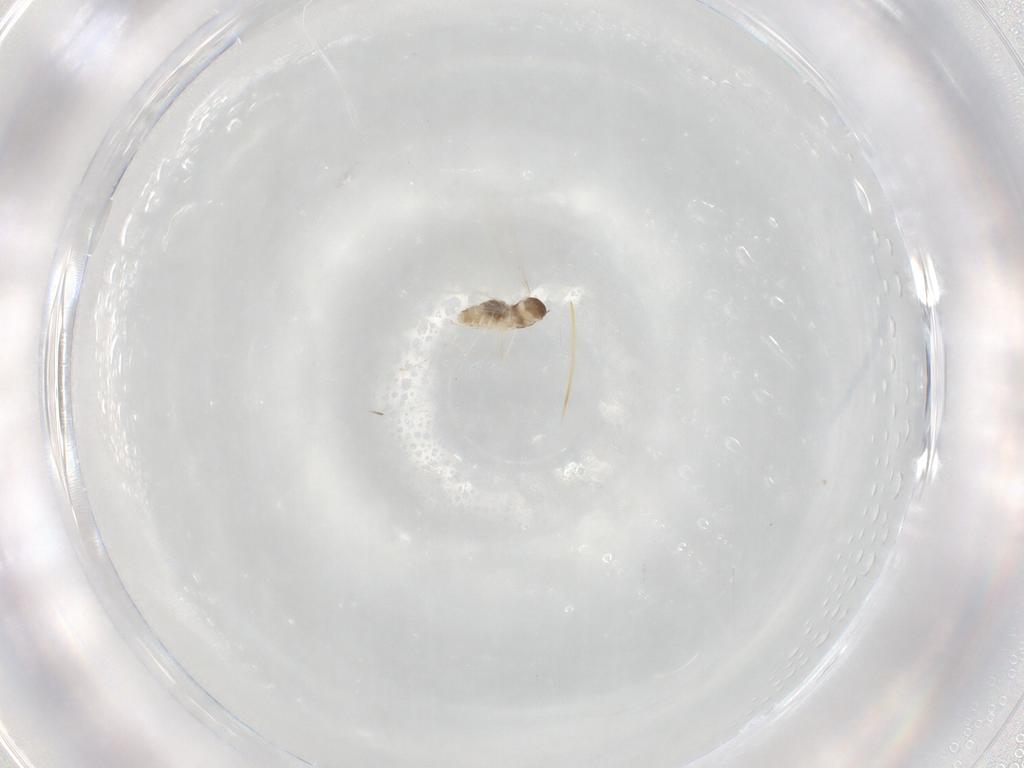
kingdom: Animalia
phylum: Arthropoda
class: Insecta
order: Diptera
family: Cecidomyiidae
